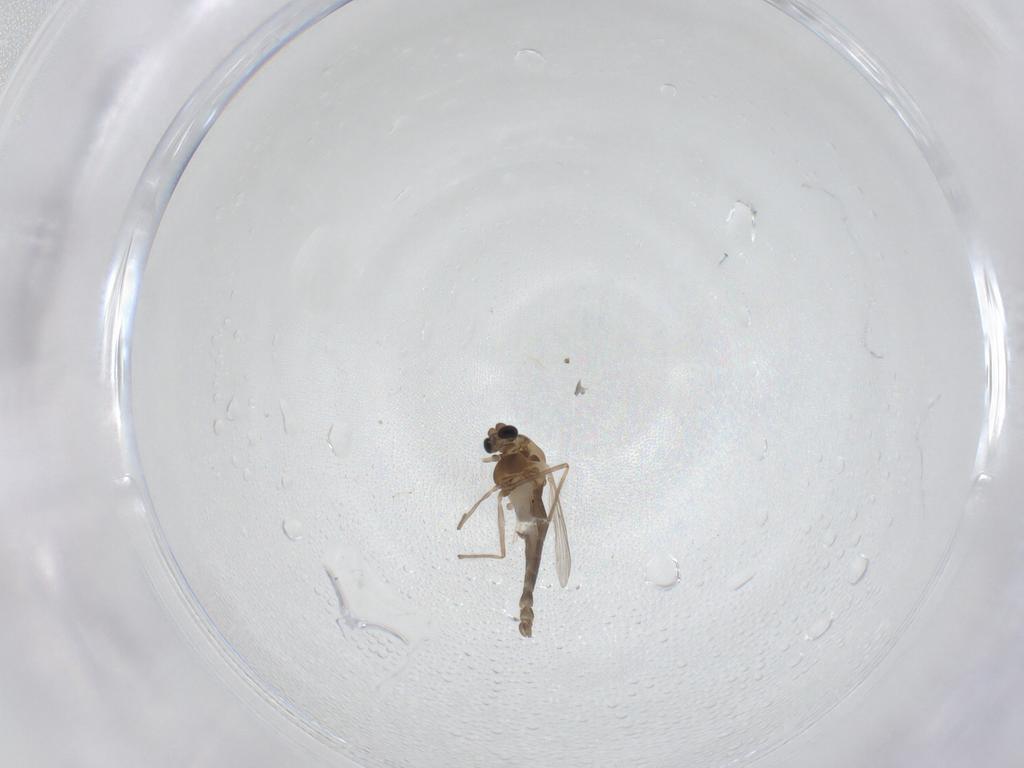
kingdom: Animalia
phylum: Arthropoda
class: Insecta
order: Diptera
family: Chironomidae
